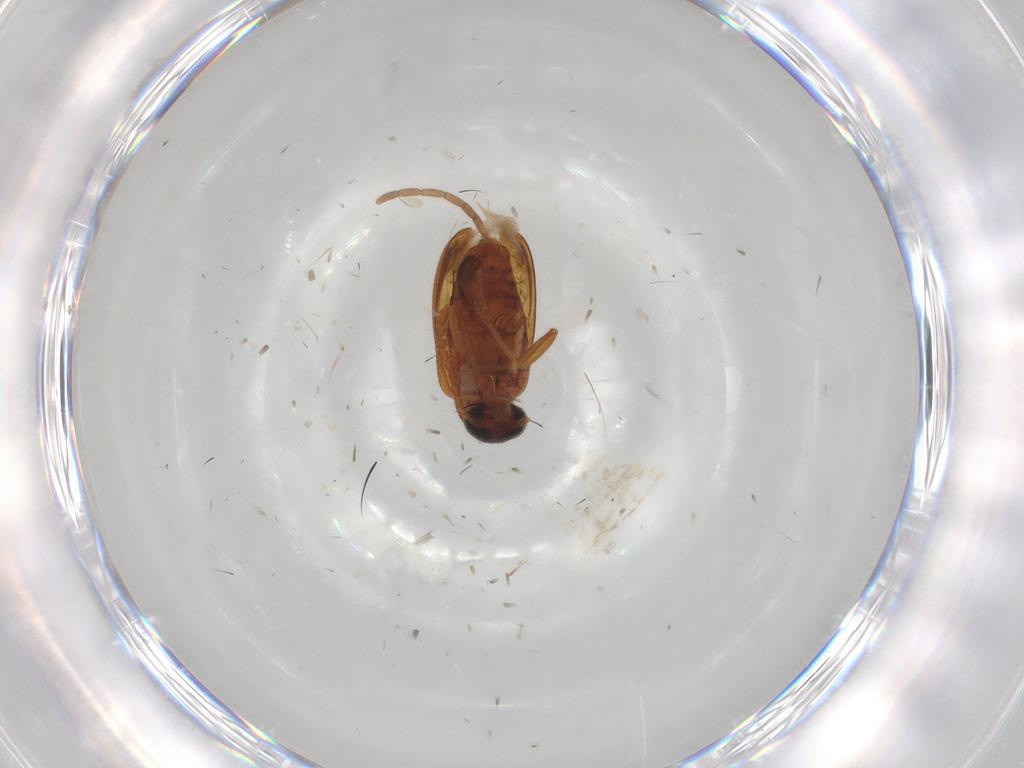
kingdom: Animalia
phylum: Arthropoda
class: Insecta
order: Coleoptera
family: Aderidae
